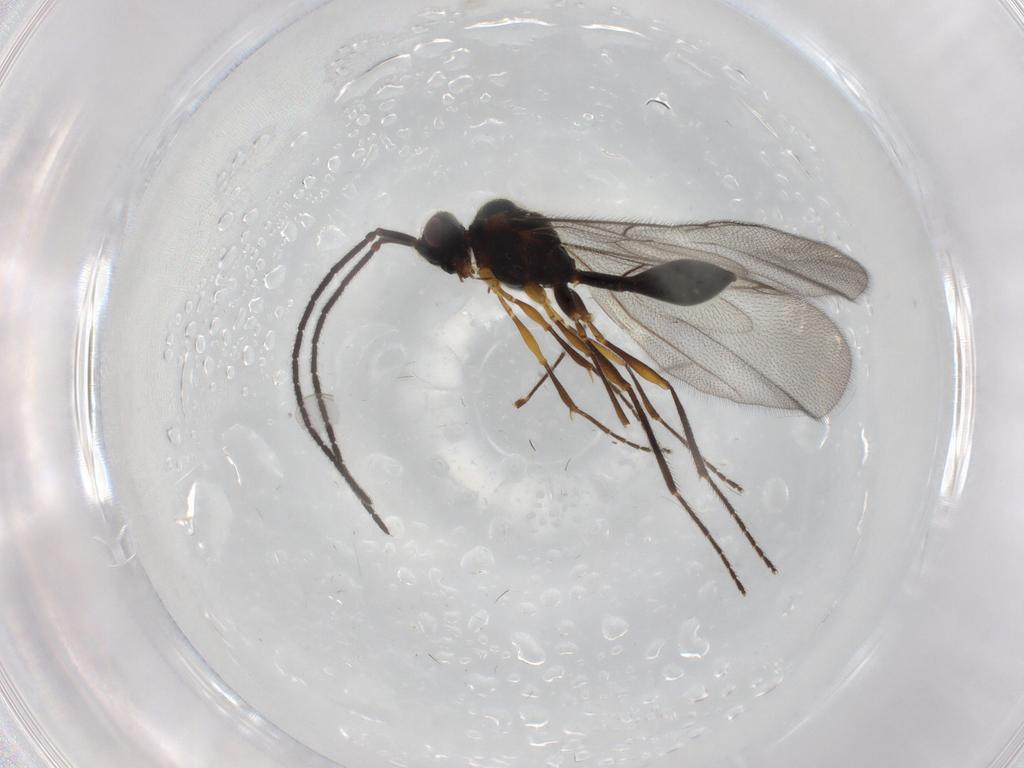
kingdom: Animalia
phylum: Arthropoda
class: Insecta
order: Hymenoptera
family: Diapriidae
